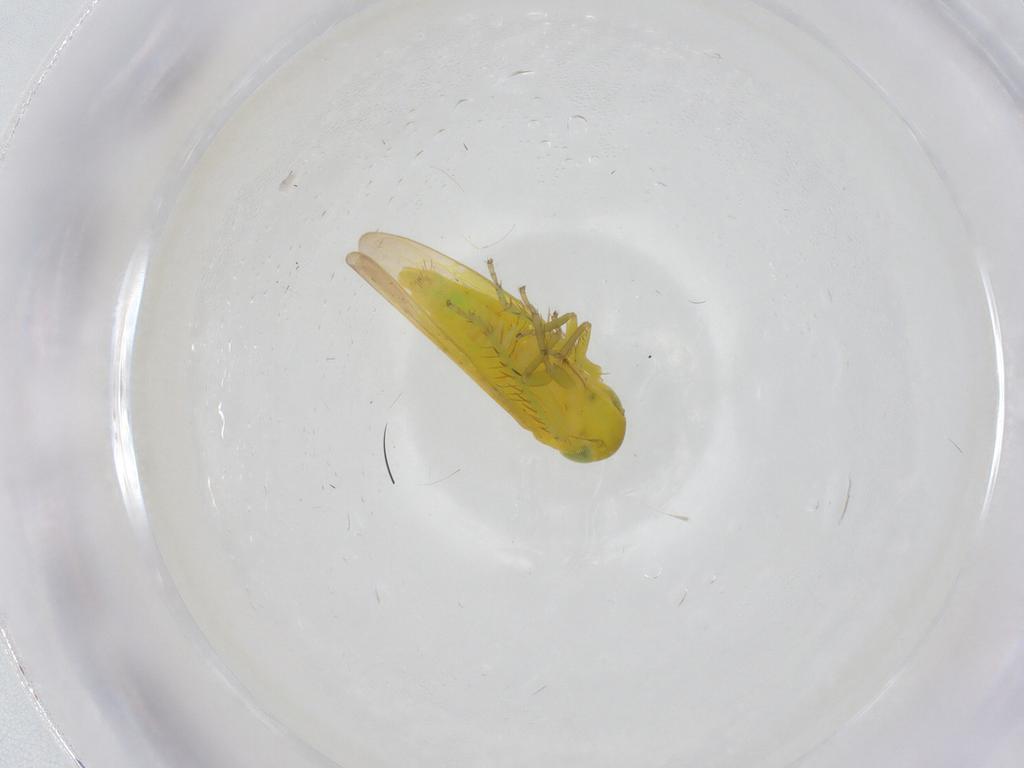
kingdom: Animalia
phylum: Arthropoda
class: Insecta
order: Hemiptera
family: Cicadellidae
